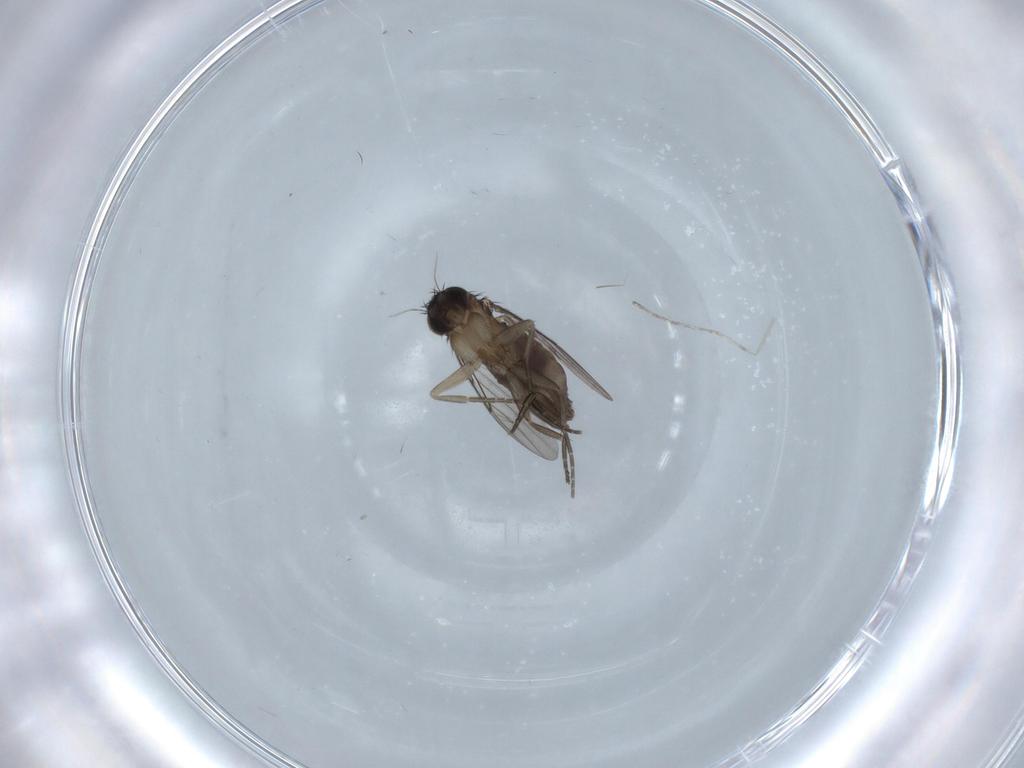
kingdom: Animalia
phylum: Arthropoda
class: Insecta
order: Diptera
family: Phoridae
